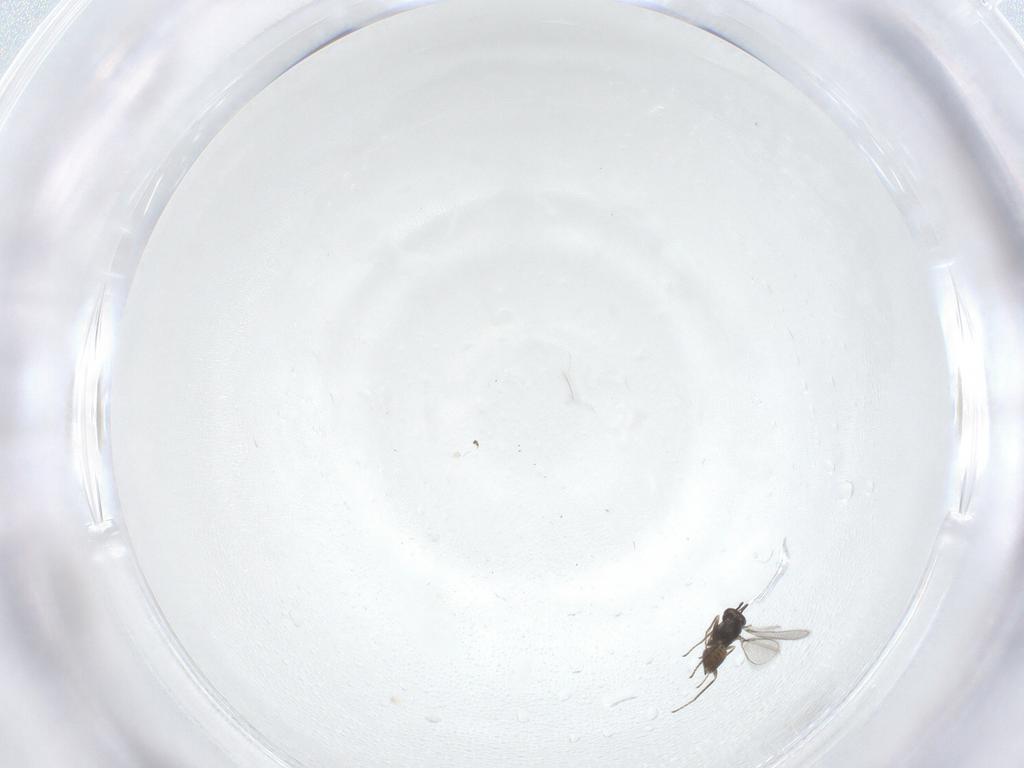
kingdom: Animalia
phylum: Arthropoda
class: Insecta
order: Hymenoptera
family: Mymaridae
